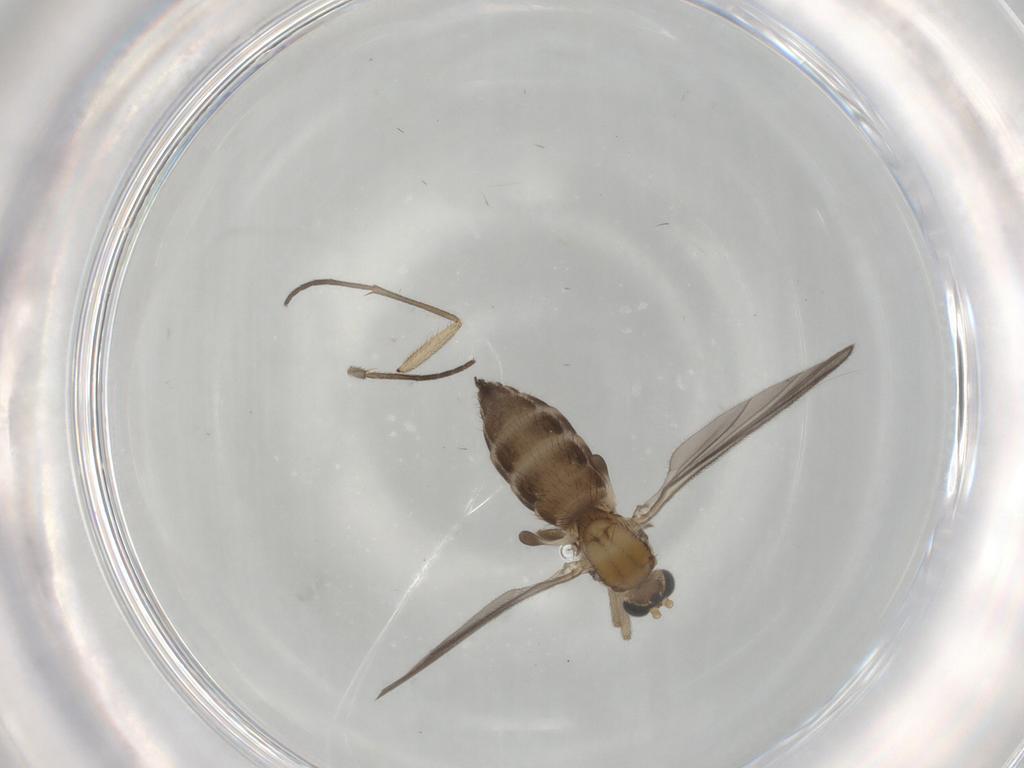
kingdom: Animalia
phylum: Arthropoda
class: Insecta
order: Diptera
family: Sciaridae
